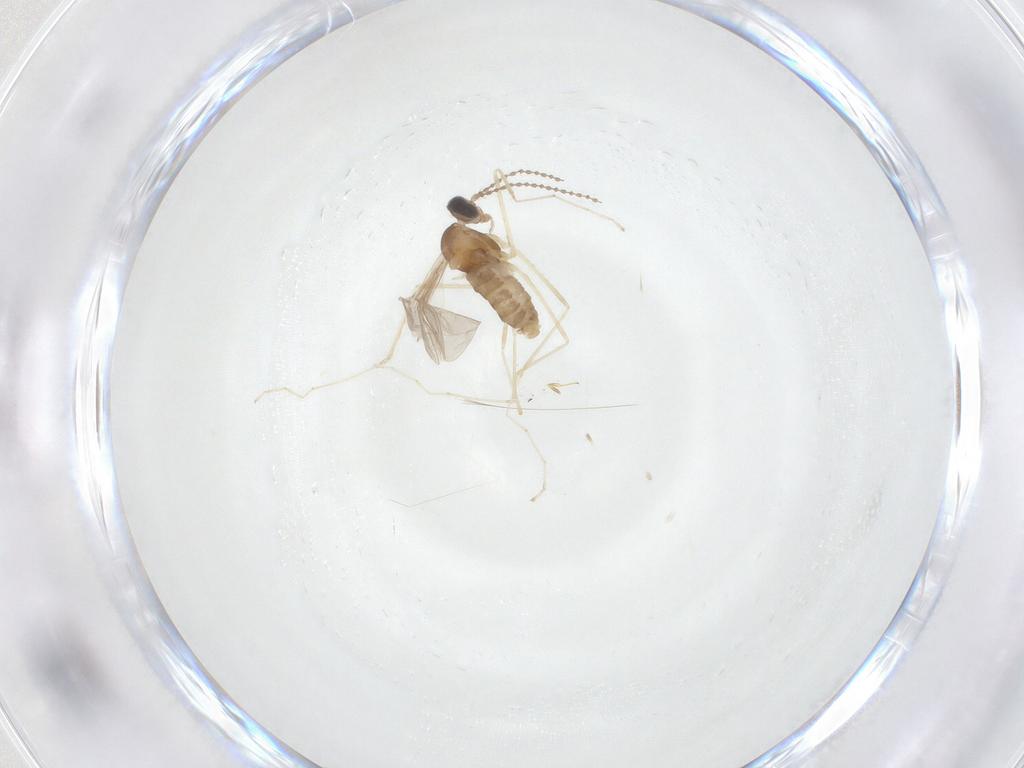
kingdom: Animalia
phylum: Arthropoda
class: Insecta
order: Diptera
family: Cecidomyiidae
